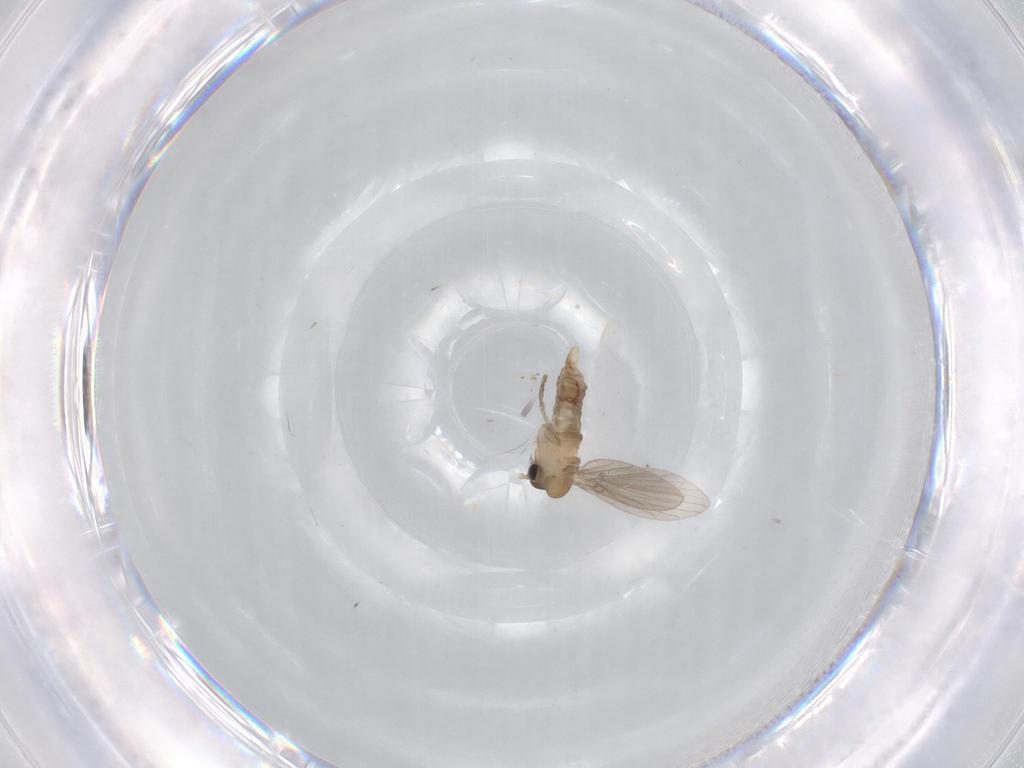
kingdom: Animalia
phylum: Arthropoda
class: Insecta
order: Diptera
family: Psychodidae
